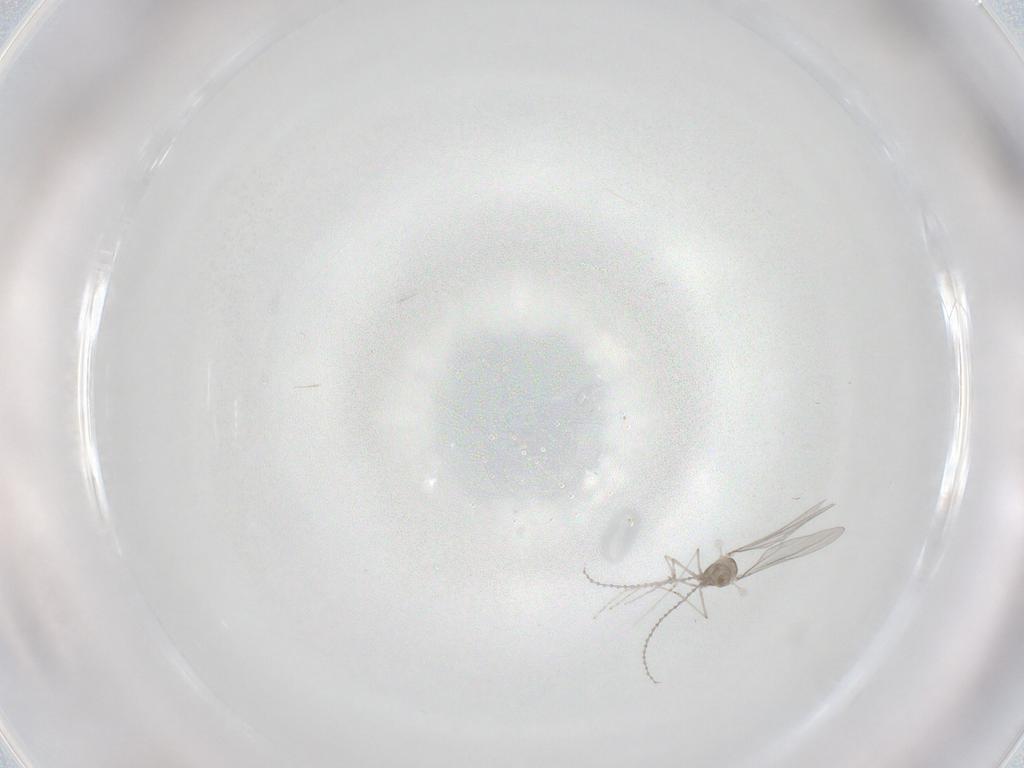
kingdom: Animalia
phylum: Arthropoda
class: Insecta
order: Diptera
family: Cecidomyiidae
